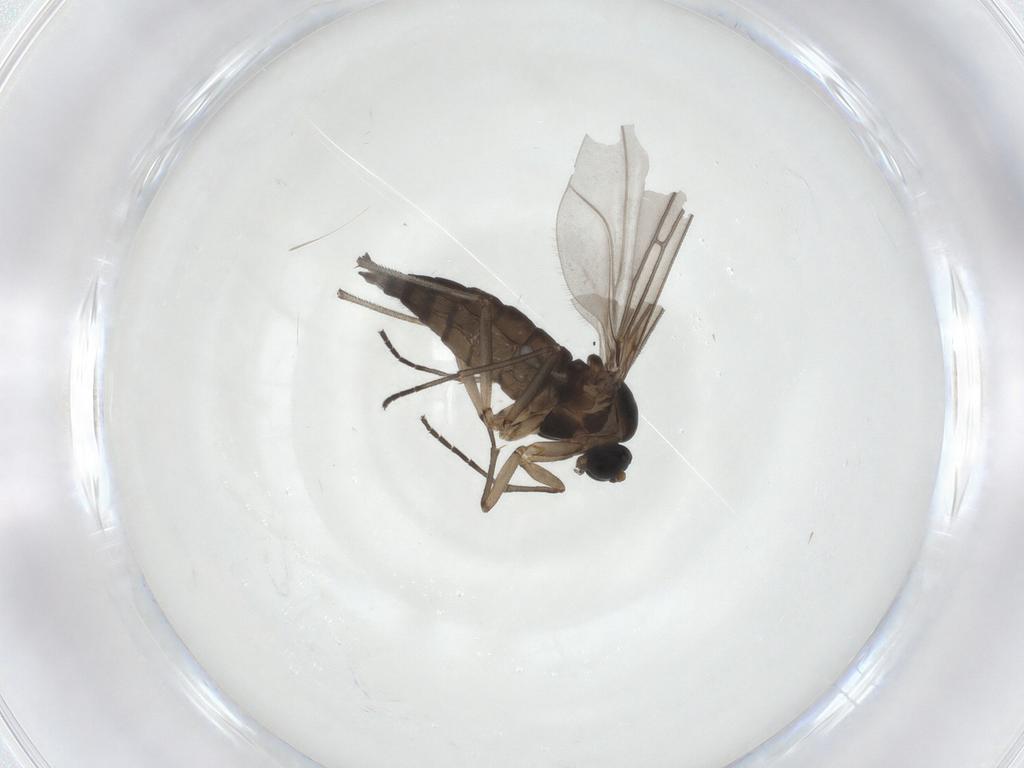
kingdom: Animalia
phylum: Arthropoda
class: Insecta
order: Diptera
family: Sciaridae
